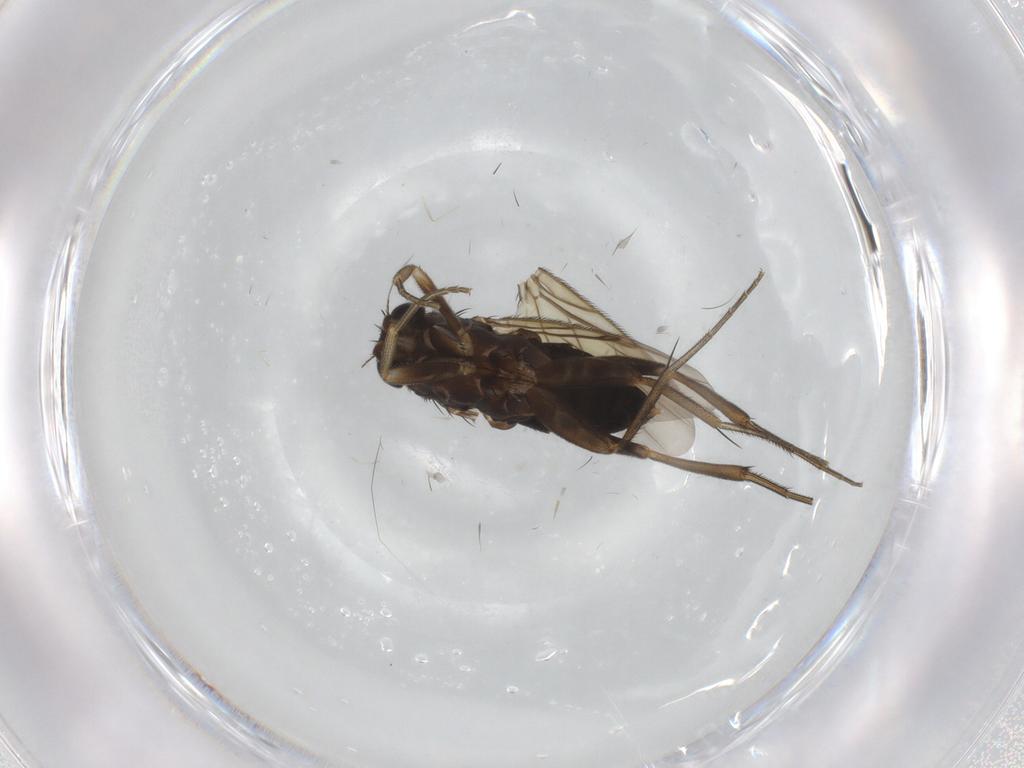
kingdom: Animalia
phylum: Arthropoda
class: Insecta
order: Diptera
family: Phoridae
